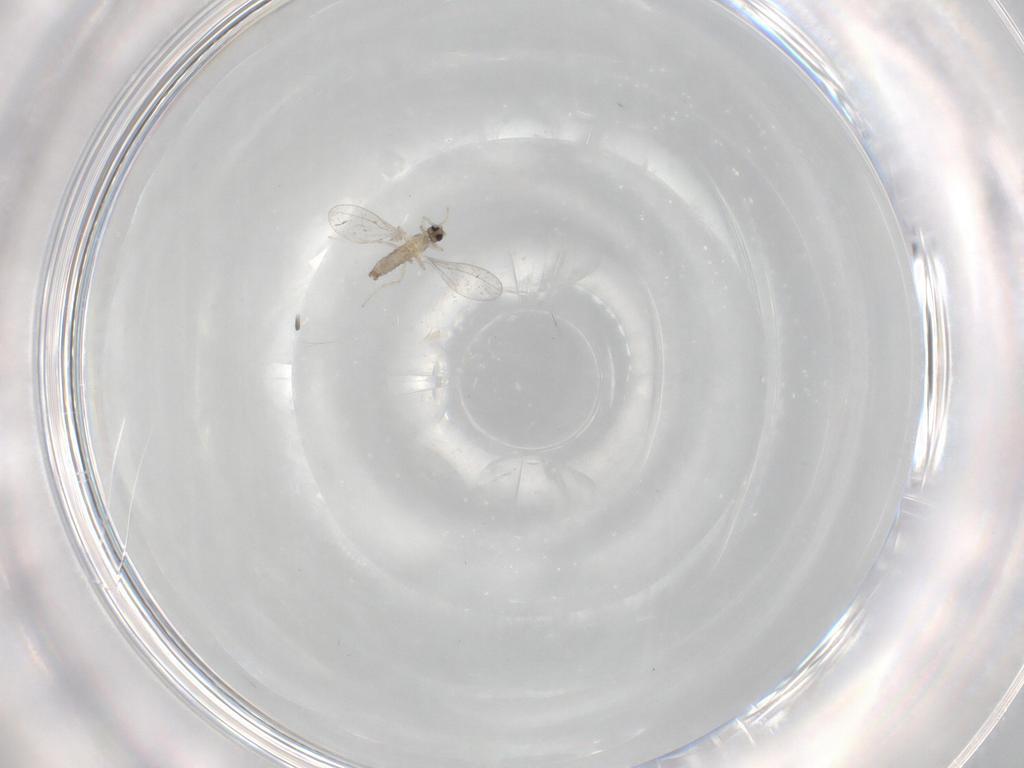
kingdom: Animalia
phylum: Arthropoda
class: Insecta
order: Diptera
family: Cecidomyiidae
